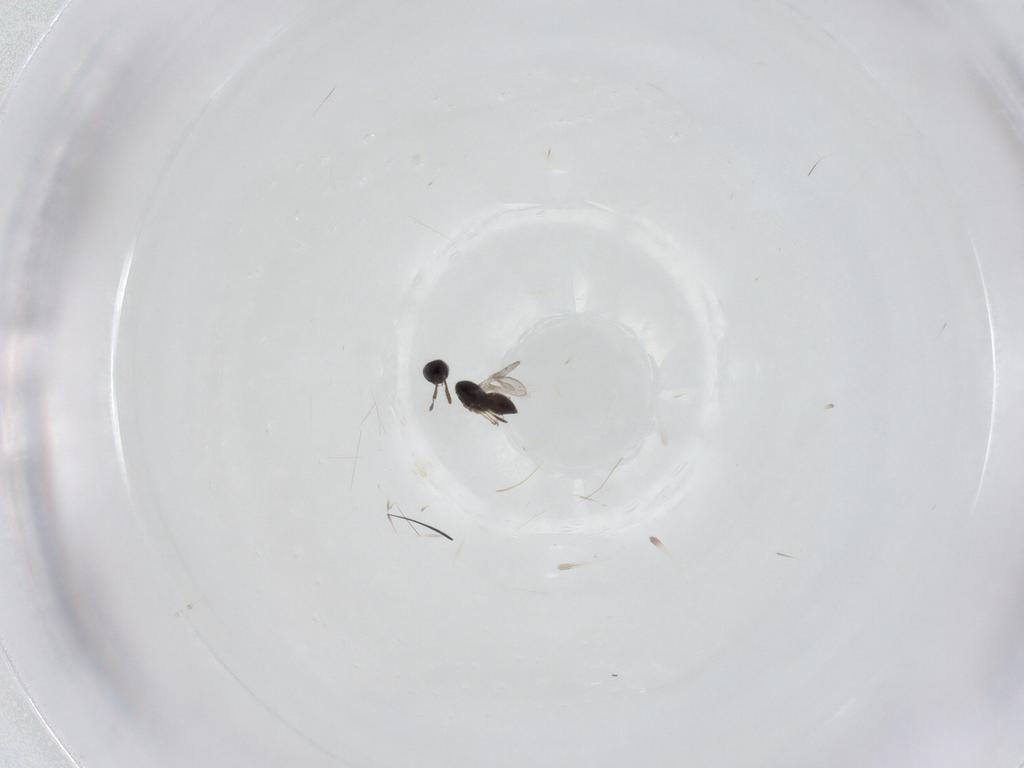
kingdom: Animalia
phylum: Arthropoda
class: Insecta
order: Hymenoptera
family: Scelionidae
